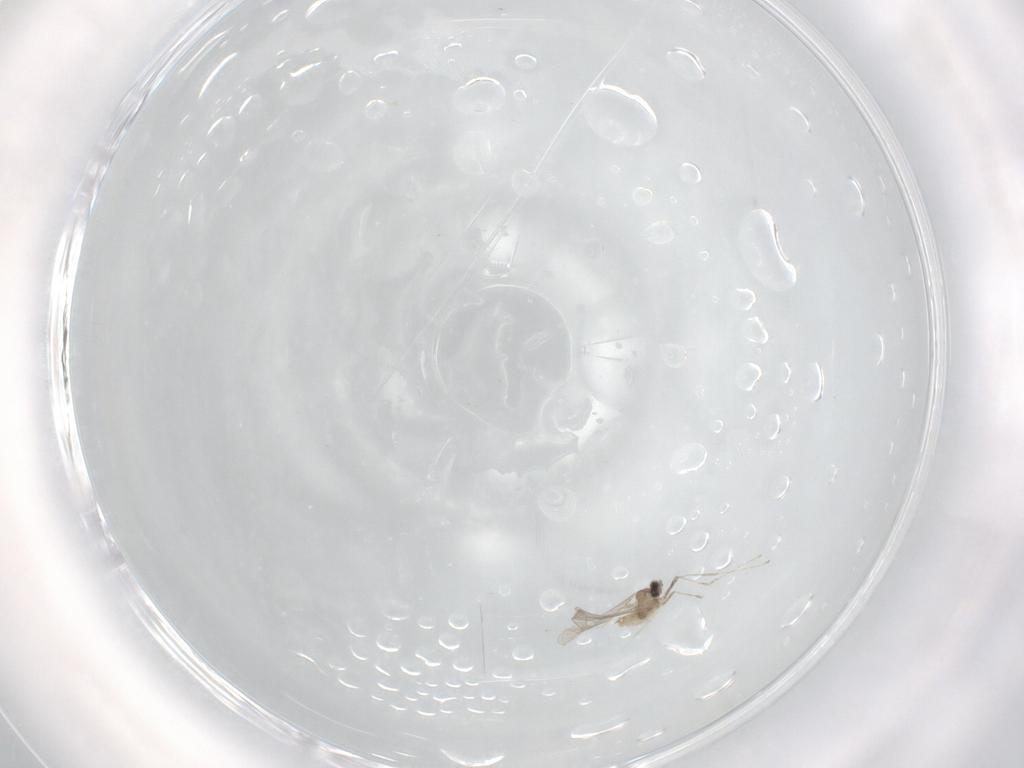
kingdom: Animalia
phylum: Arthropoda
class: Insecta
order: Diptera
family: Cecidomyiidae
